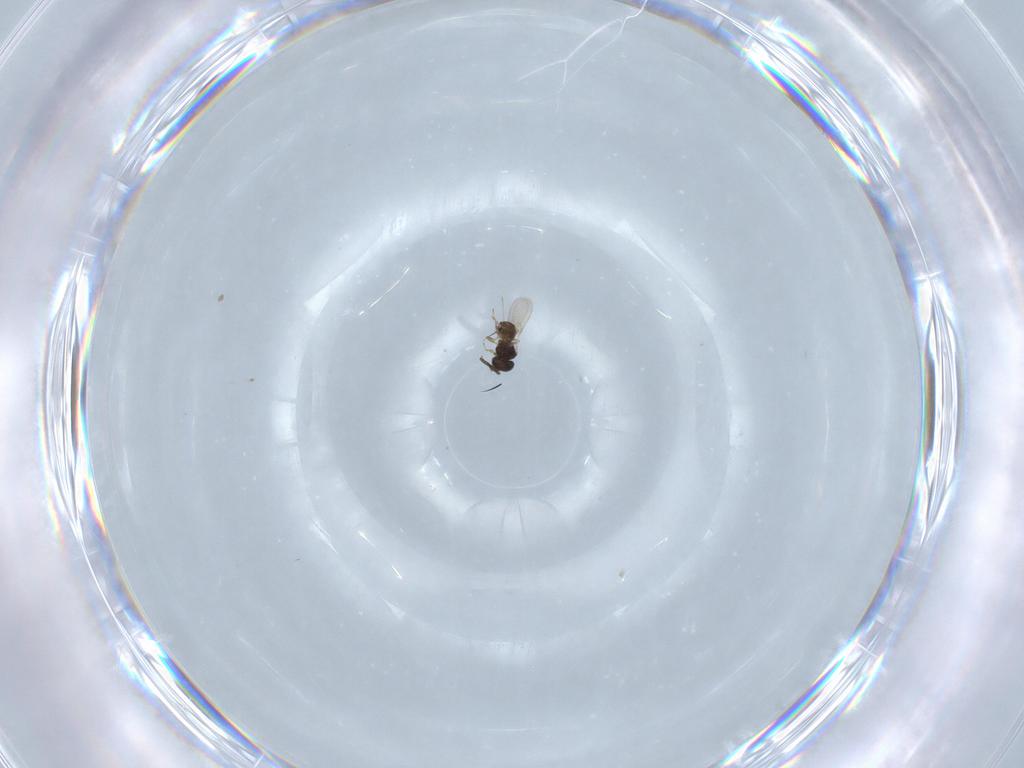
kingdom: Animalia
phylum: Arthropoda
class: Insecta
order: Hymenoptera
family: Scelionidae
